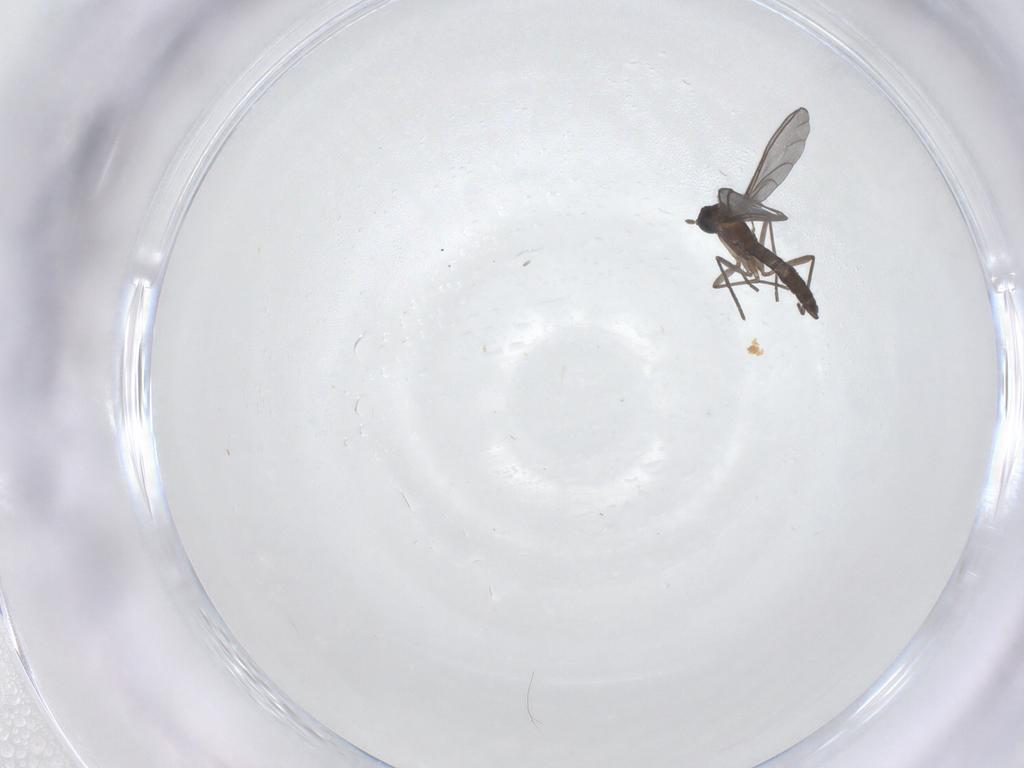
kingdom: Animalia
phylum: Arthropoda
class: Insecta
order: Diptera
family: Chironomidae
